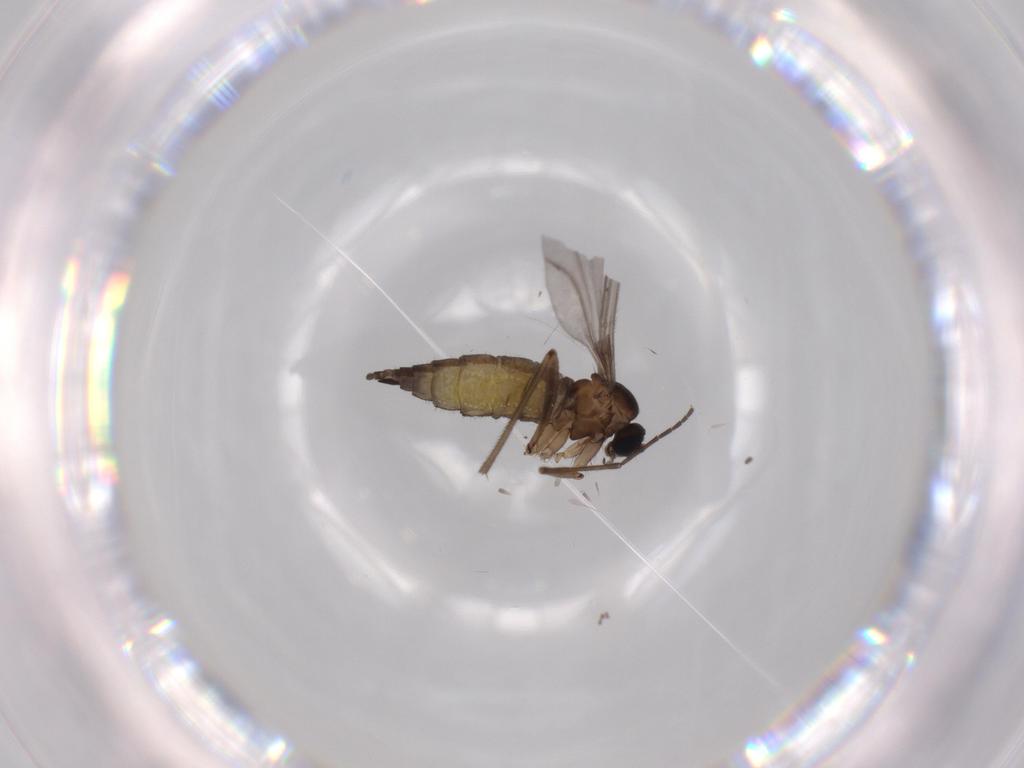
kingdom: Animalia
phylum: Arthropoda
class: Insecta
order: Diptera
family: Sciaridae
